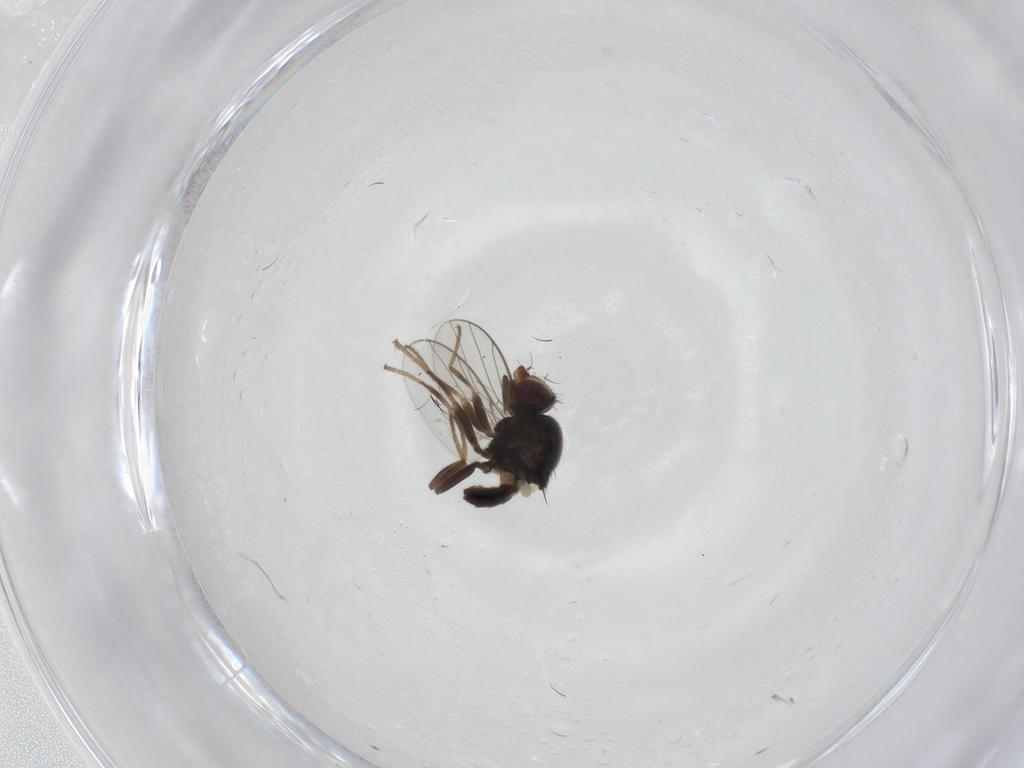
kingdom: Animalia
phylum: Arthropoda
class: Insecta
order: Diptera
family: Chloropidae
